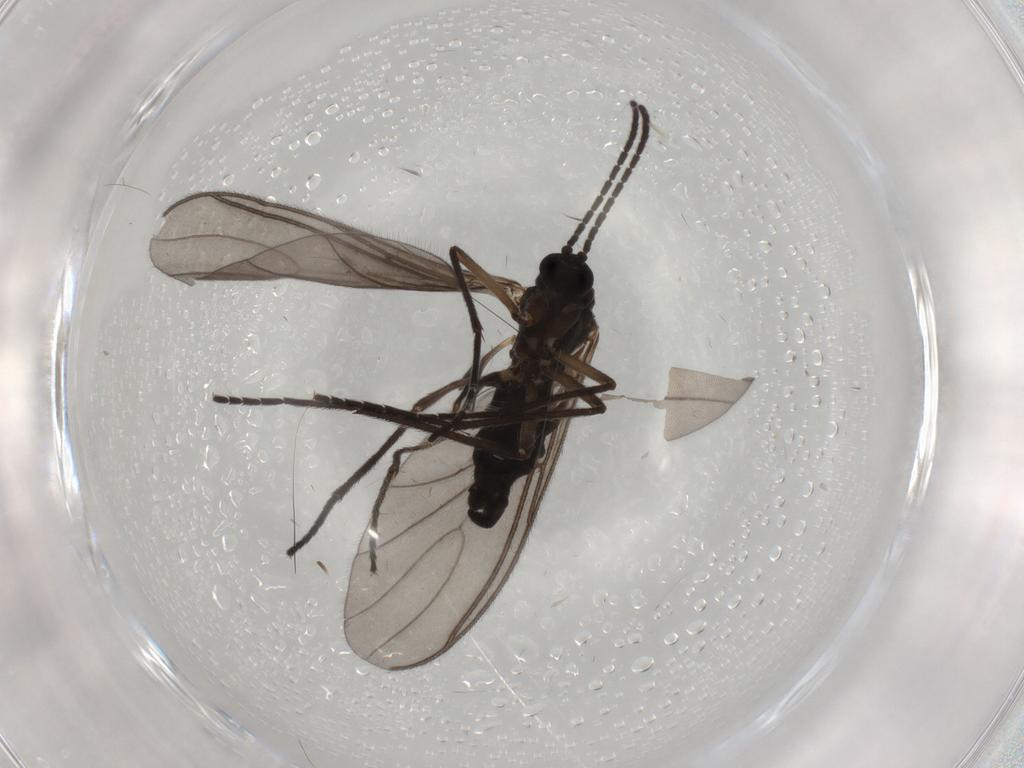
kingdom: Animalia
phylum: Arthropoda
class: Insecta
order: Diptera
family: Sciaridae
